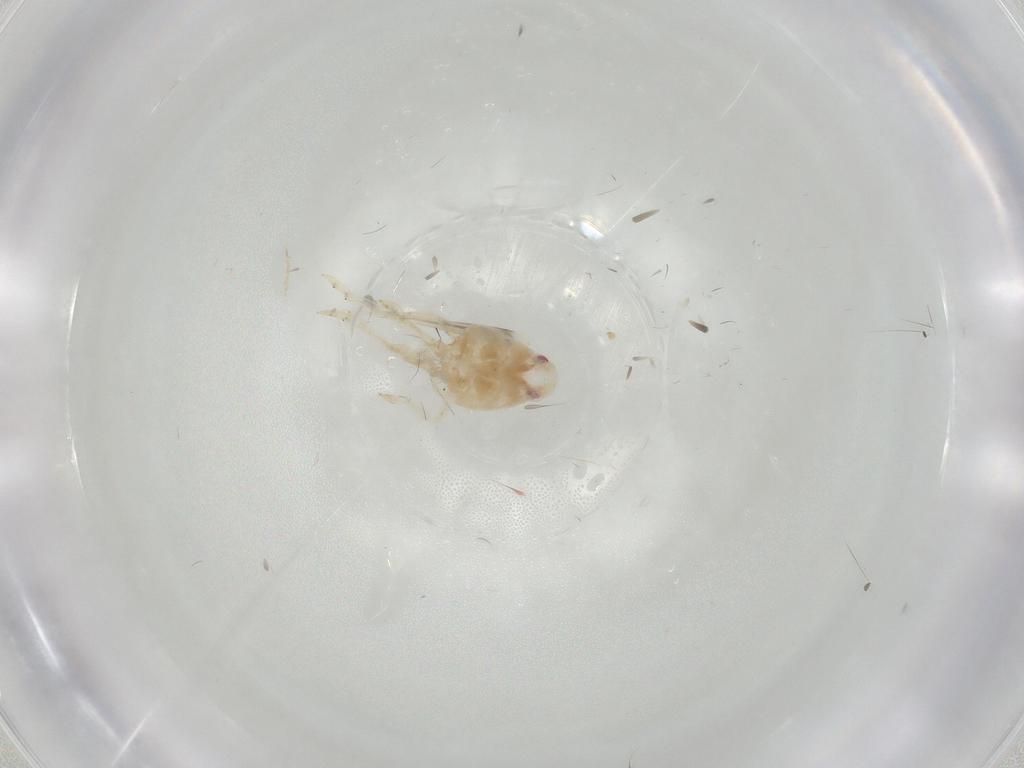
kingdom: Animalia
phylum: Arthropoda
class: Insecta
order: Hemiptera
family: Flatidae
